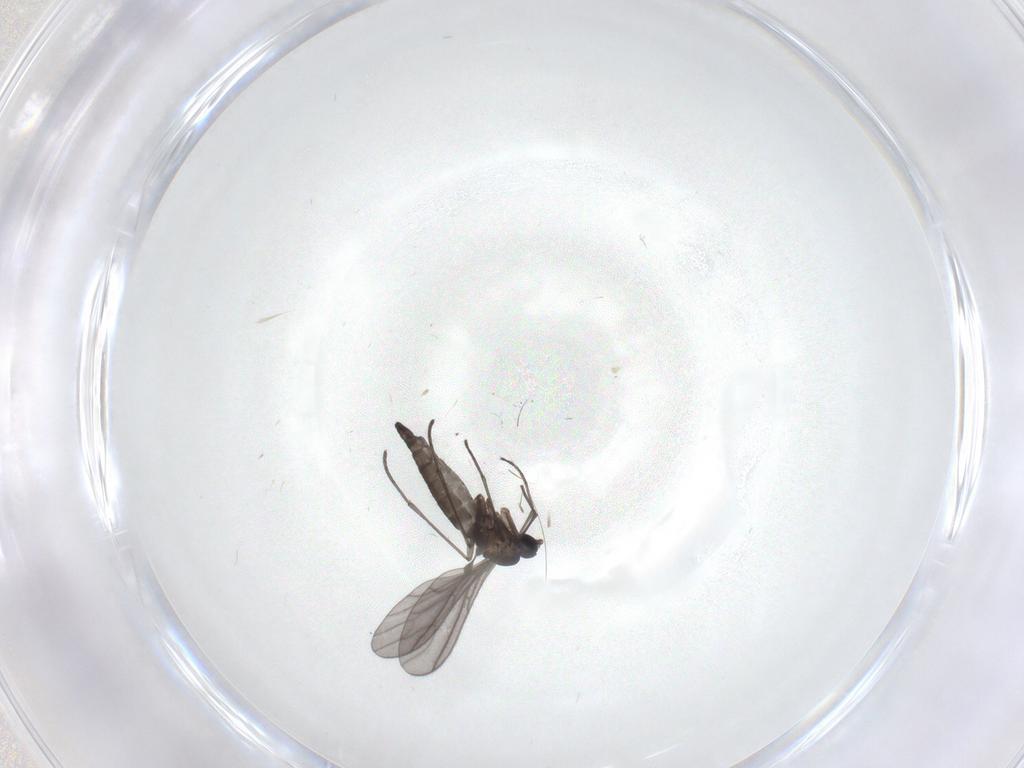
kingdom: Animalia
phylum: Arthropoda
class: Insecta
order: Diptera
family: Sciaridae
